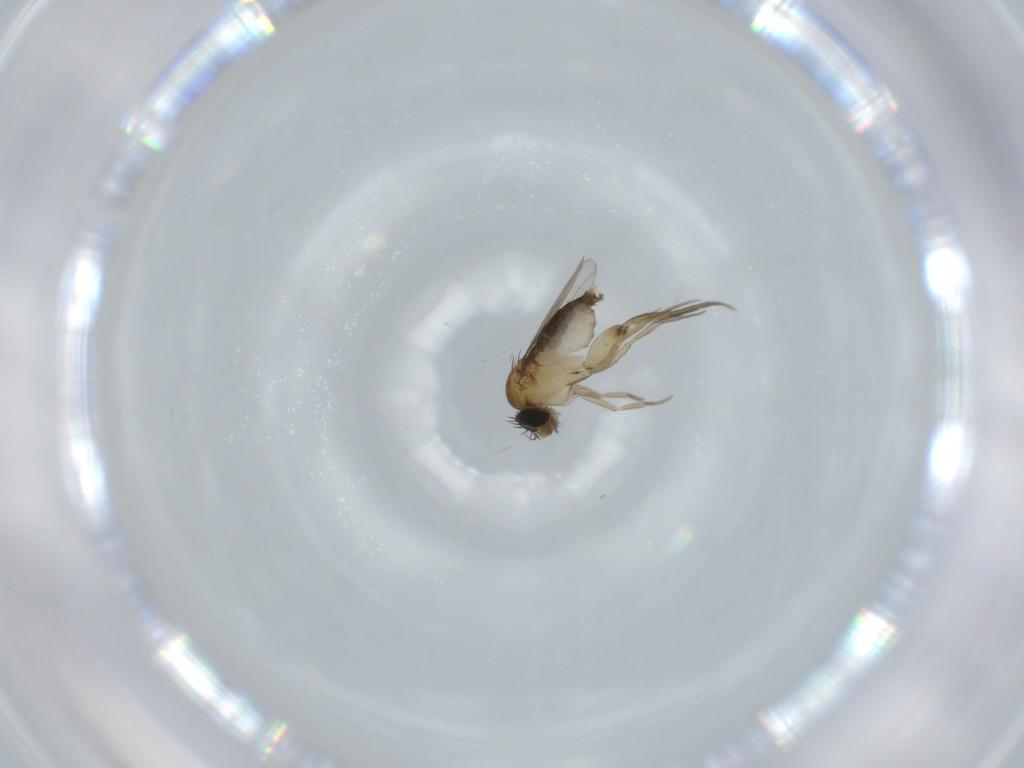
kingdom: Animalia
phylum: Arthropoda
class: Insecta
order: Diptera
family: Phoridae
